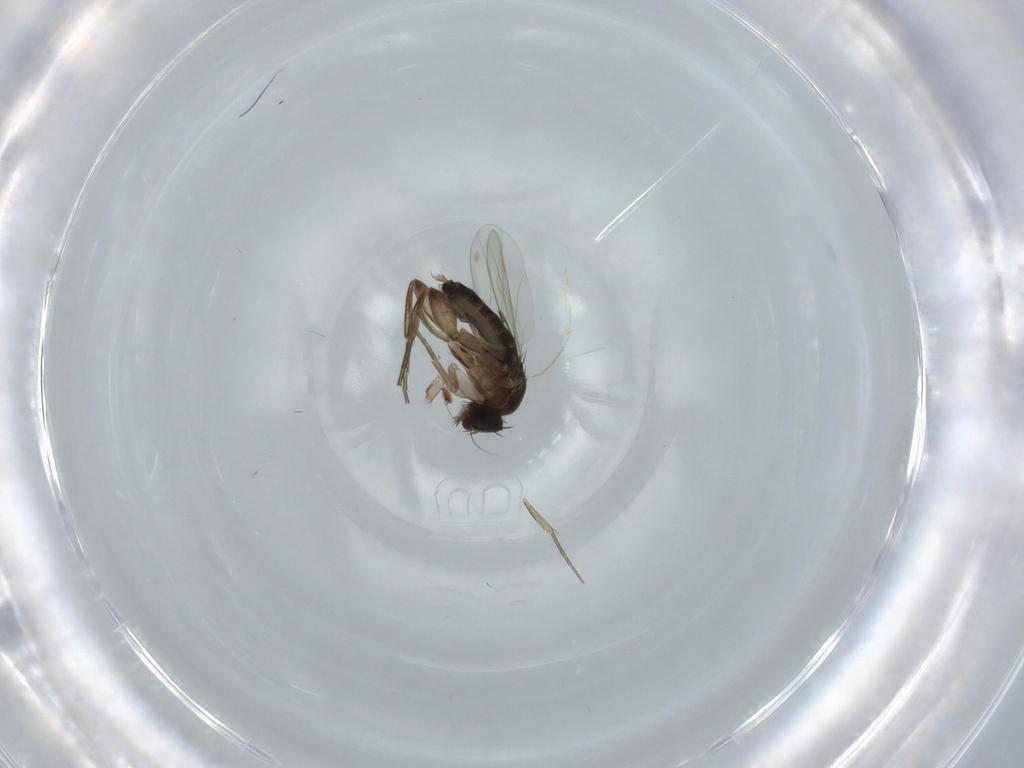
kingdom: Animalia
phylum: Arthropoda
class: Insecta
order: Diptera
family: Phoridae
